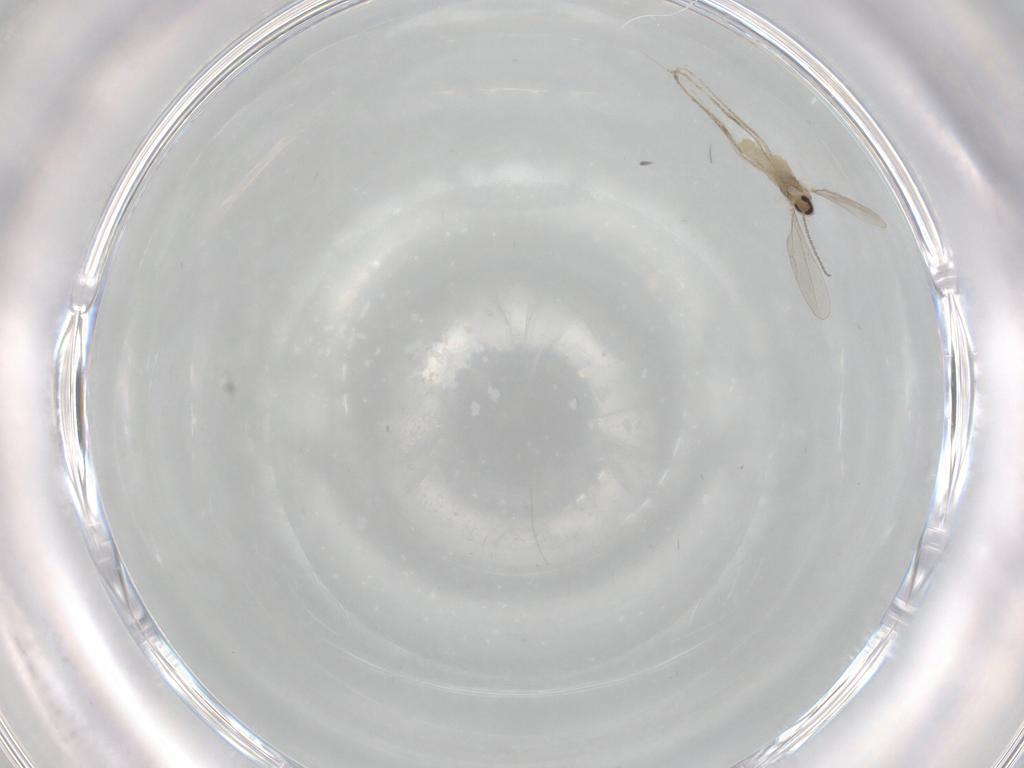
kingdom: Animalia
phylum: Arthropoda
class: Insecta
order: Diptera
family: Cecidomyiidae
